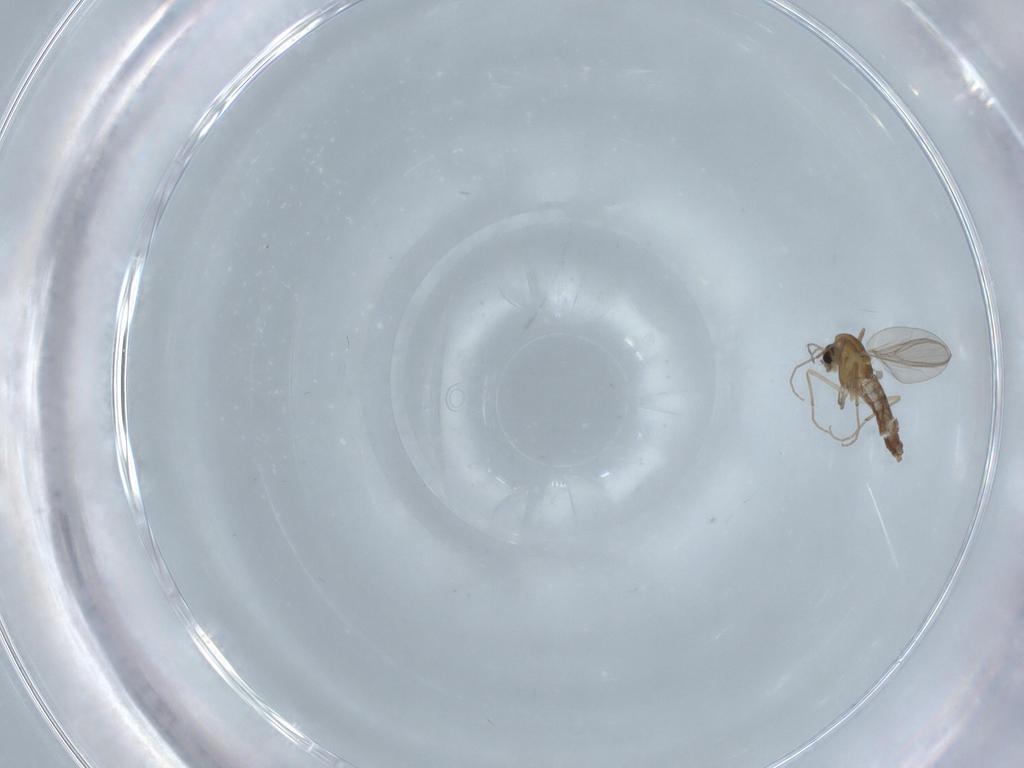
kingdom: Animalia
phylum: Arthropoda
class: Insecta
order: Diptera
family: Chironomidae
